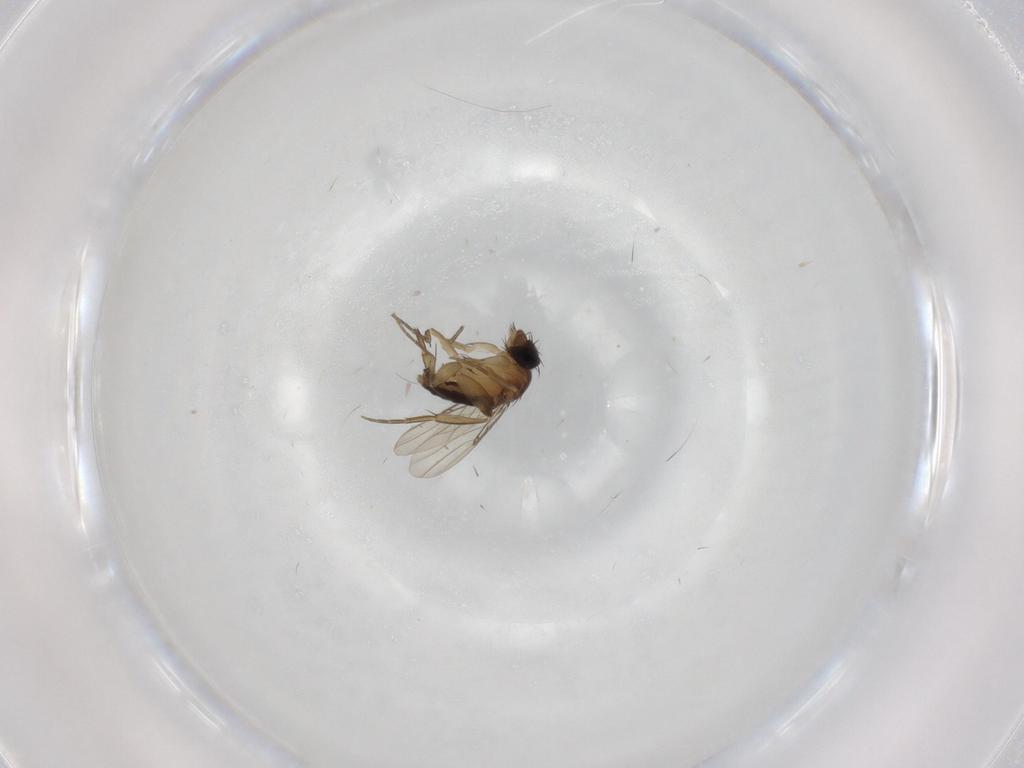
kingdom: Animalia
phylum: Arthropoda
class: Insecta
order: Diptera
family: Phoridae
